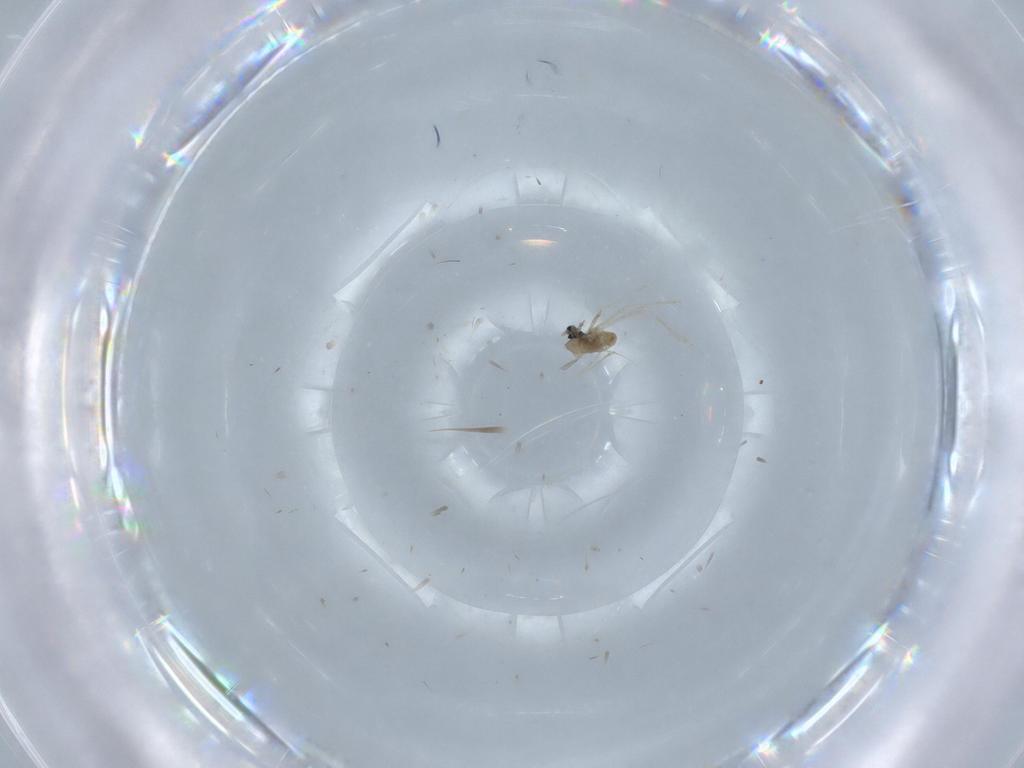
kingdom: Animalia
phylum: Arthropoda
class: Insecta
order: Diptera
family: Cecidomyiidae
